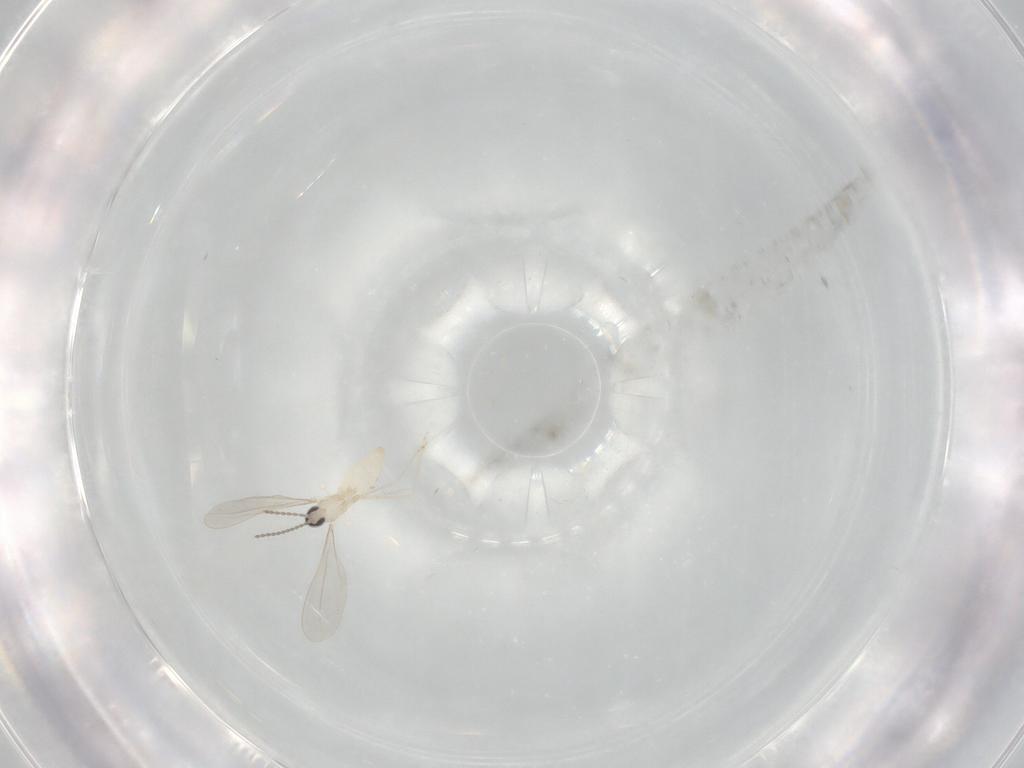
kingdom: Animalia
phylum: Arthropoda
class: Insecta
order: Diptera
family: Cecidomyiidae
